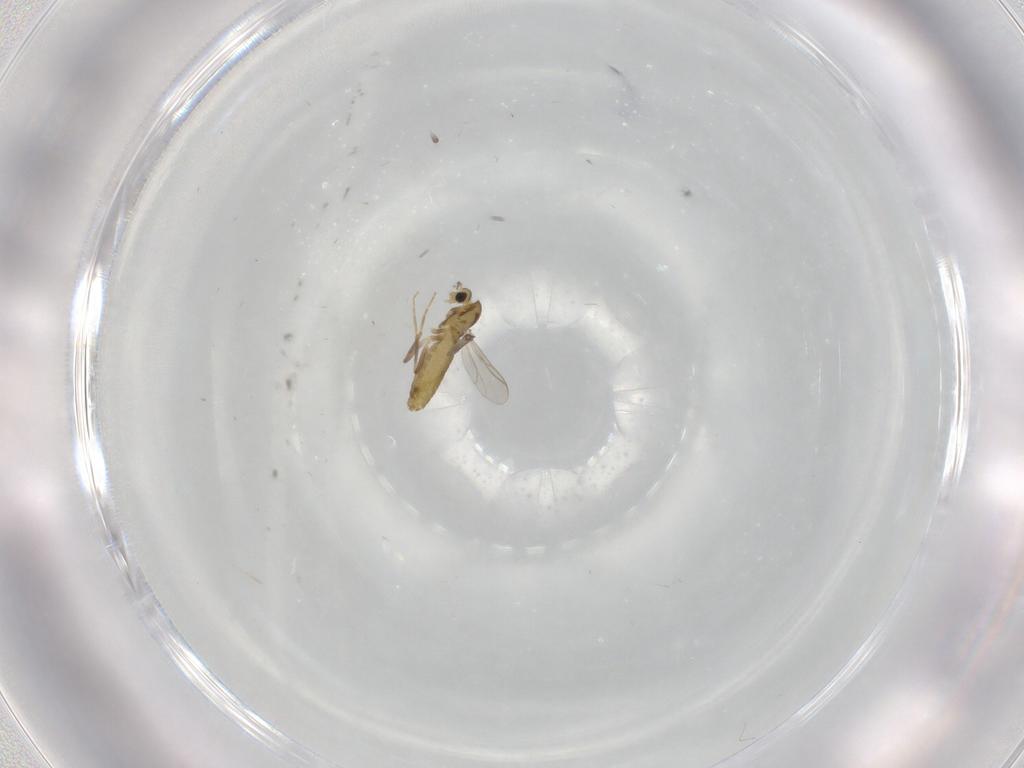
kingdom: Animalia
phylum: Arthropoda
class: Insecta
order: Diptera
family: Chironomidae
